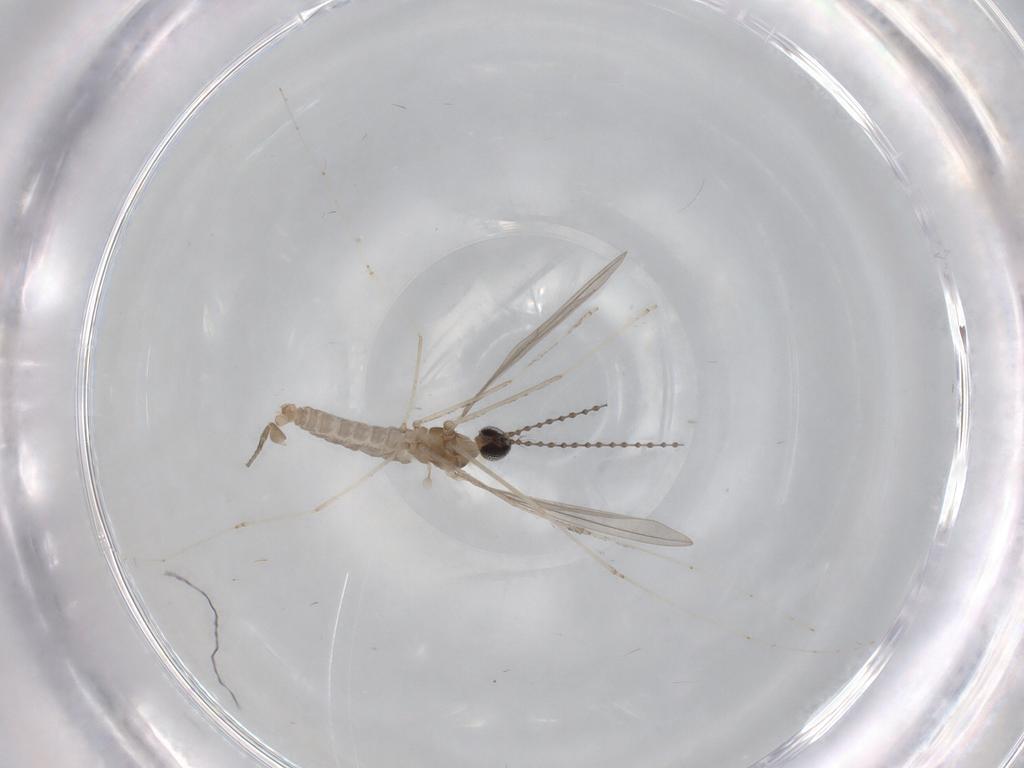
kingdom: Animalia
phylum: Arthropoda
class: Insecta
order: Diptera
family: Cecidomyiidae
